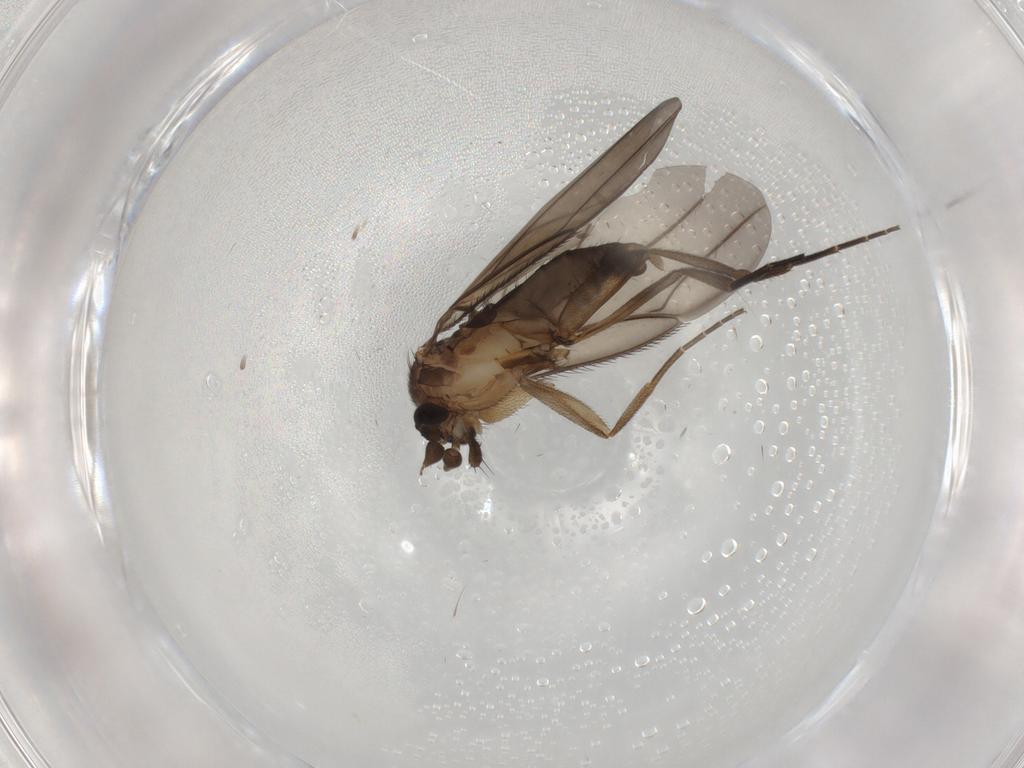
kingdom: Animalia
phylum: Arthropoda
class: Insecta
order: Diptera
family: Phoridae
